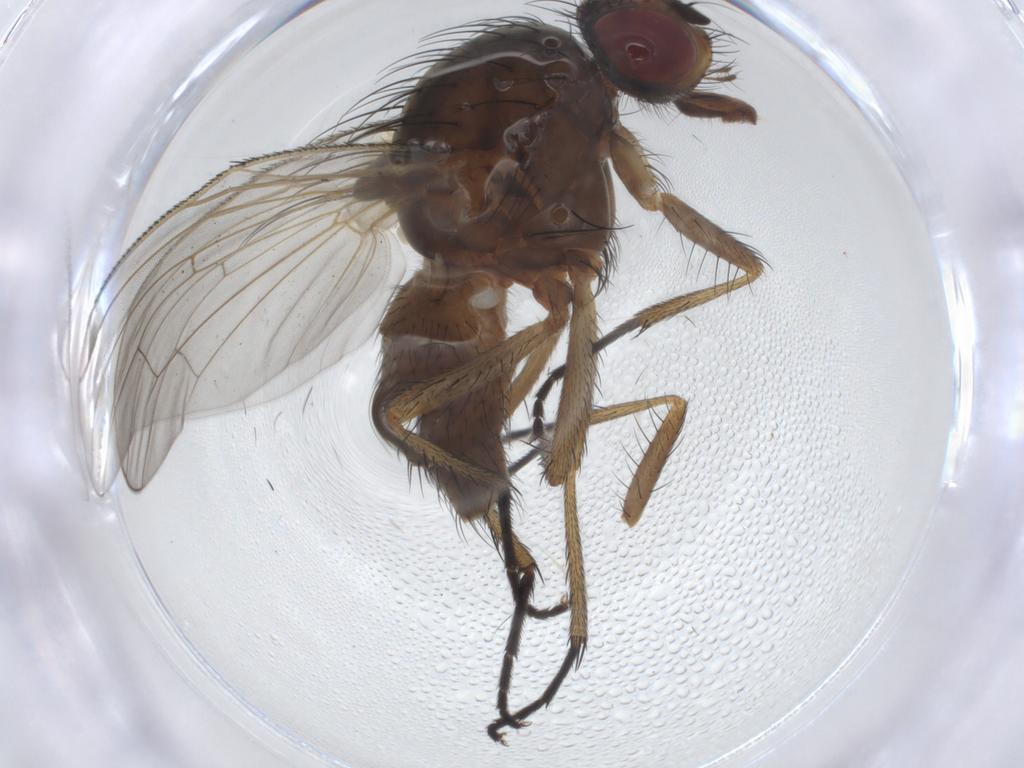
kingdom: Animalia
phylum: Arthropoda
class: Insecta
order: Diptera
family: Anthomyiidae
